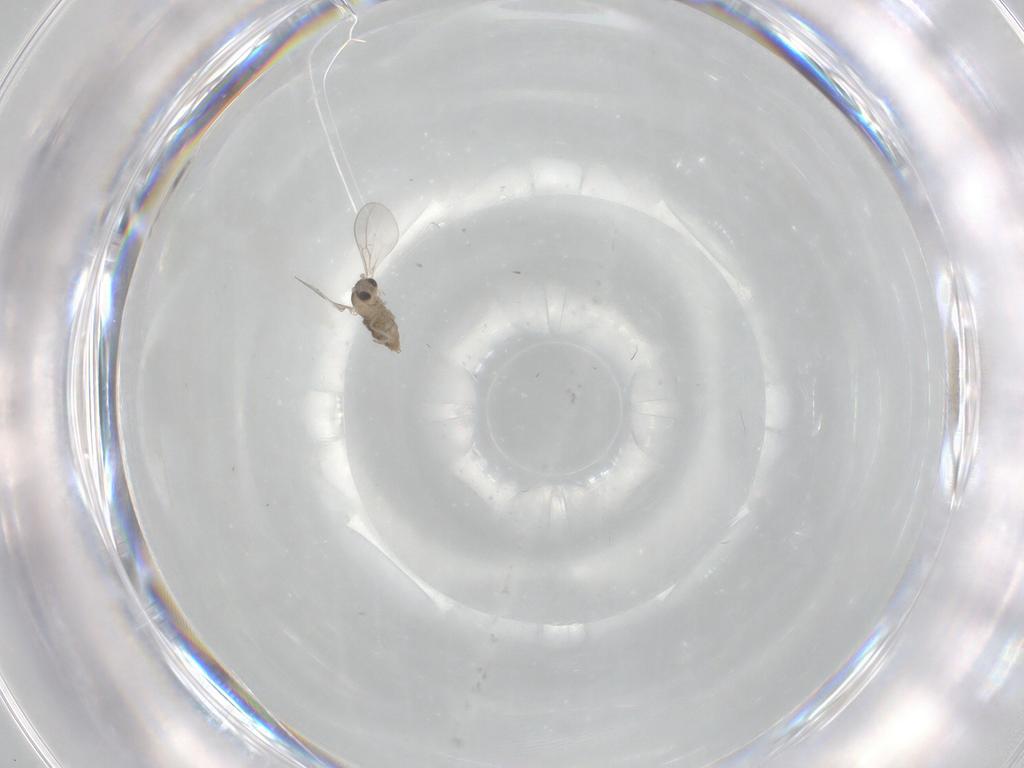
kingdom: Animalia
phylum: Arthropoda
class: Insecta
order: Diptera
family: Cecidomyiidae
